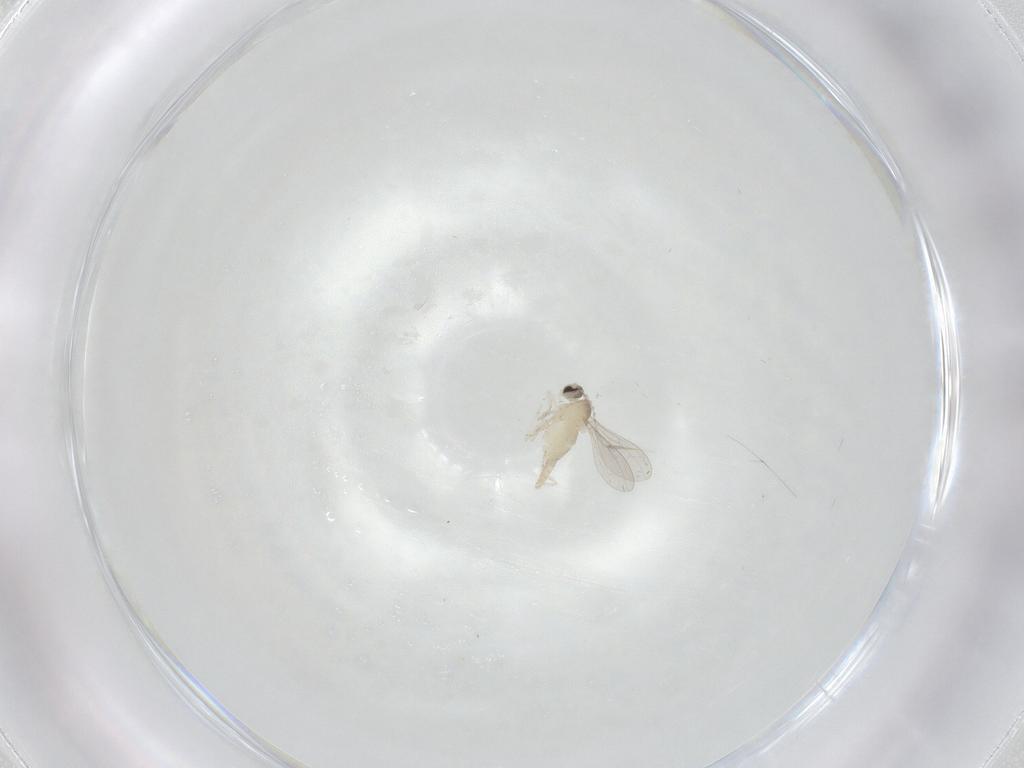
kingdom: Animalia
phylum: Arthropoda
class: Insecta
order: Diptera
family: Cecidomyiidae
